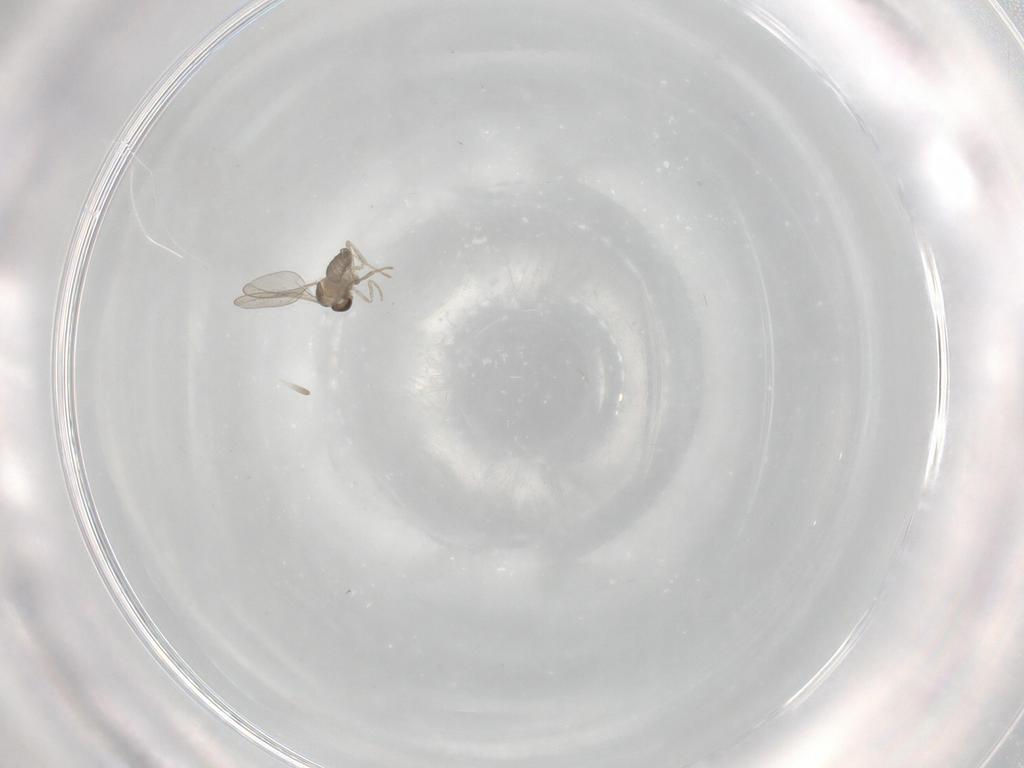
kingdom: Animalia
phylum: Arthropoda
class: Insecta
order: Diptera
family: Cecidomyiidae
